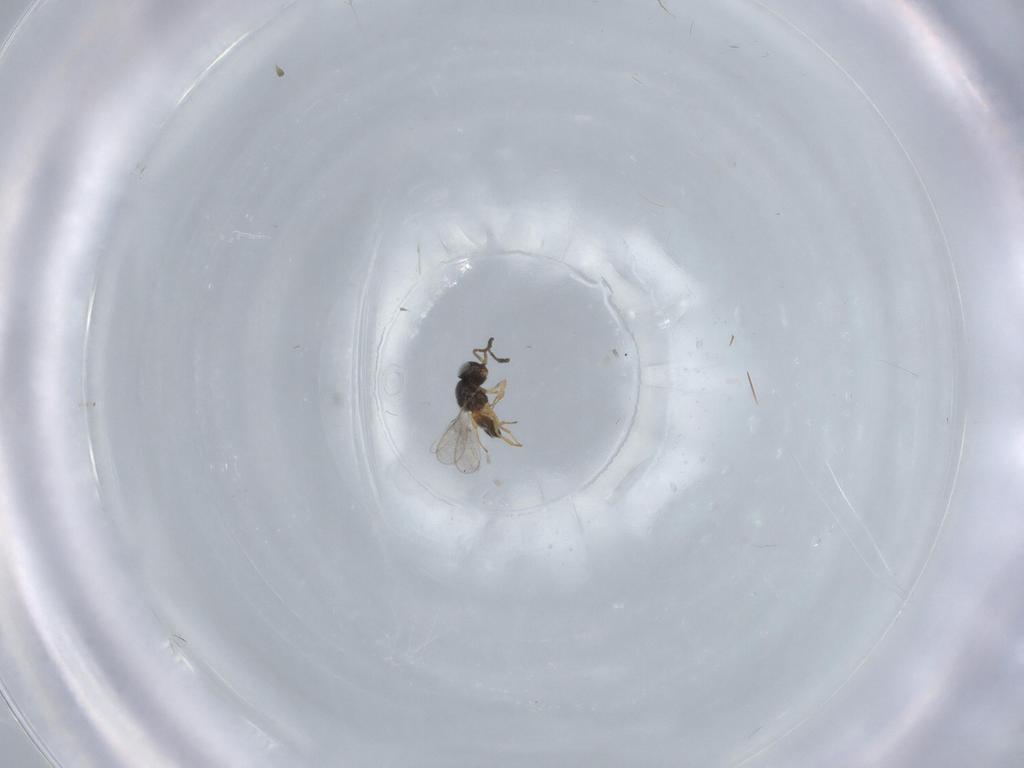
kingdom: Animalia
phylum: Arthropoda
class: Insecta
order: Hymenoptera
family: Scelionidae
